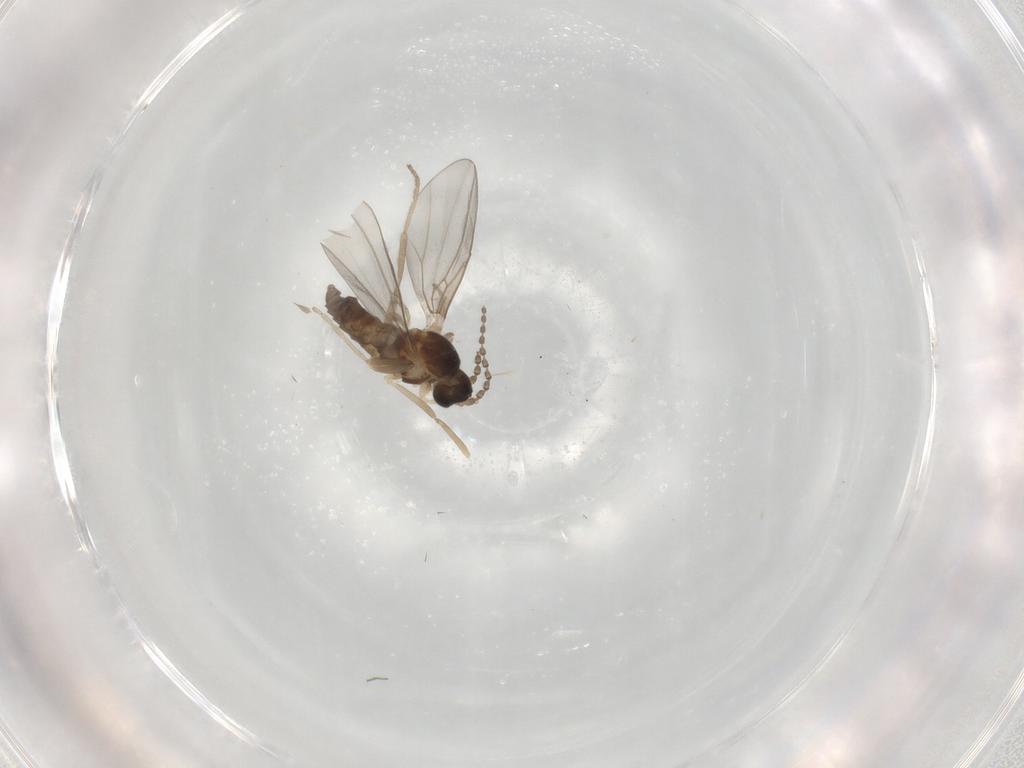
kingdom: Animalia
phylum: Arthropoda
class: Insecta
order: Diptera
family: Cecidomyiidae
